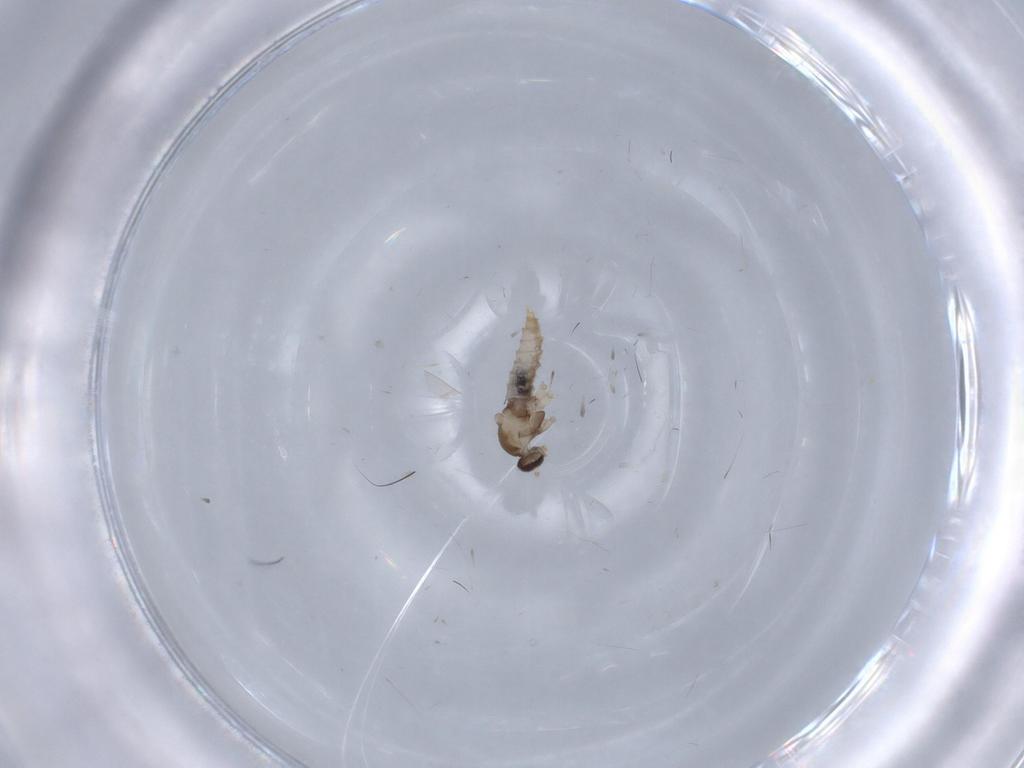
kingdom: Animalia
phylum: Arthropoda
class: Insecta
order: Diptera
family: Cecidomyiidae
